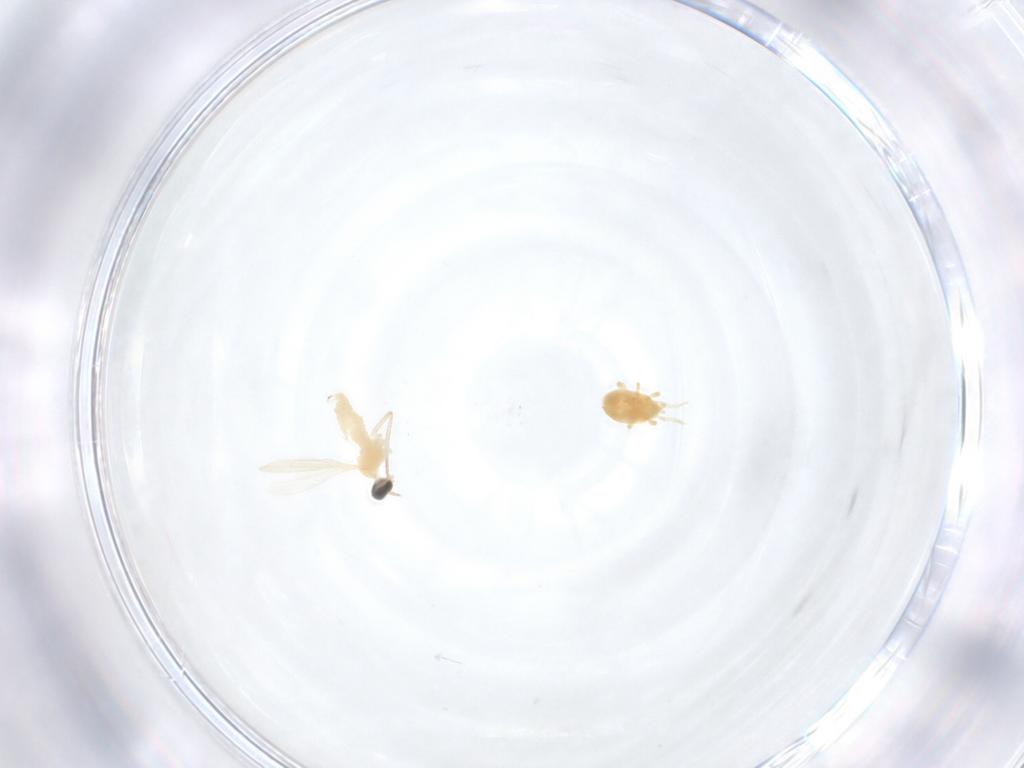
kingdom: Animalia
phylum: Arthropoda
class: Insecta
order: Diptera
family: Cecidomyiidae
